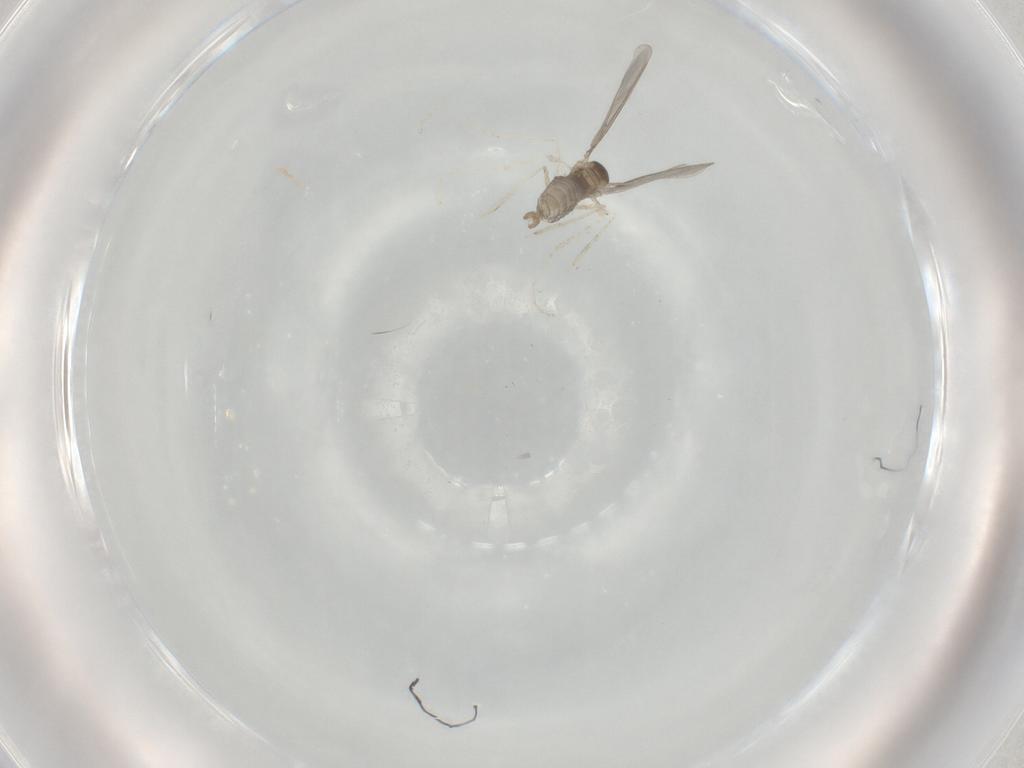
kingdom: Animalia
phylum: Arthropoda
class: Insecta
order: Diptera
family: Cecidomyiidae
